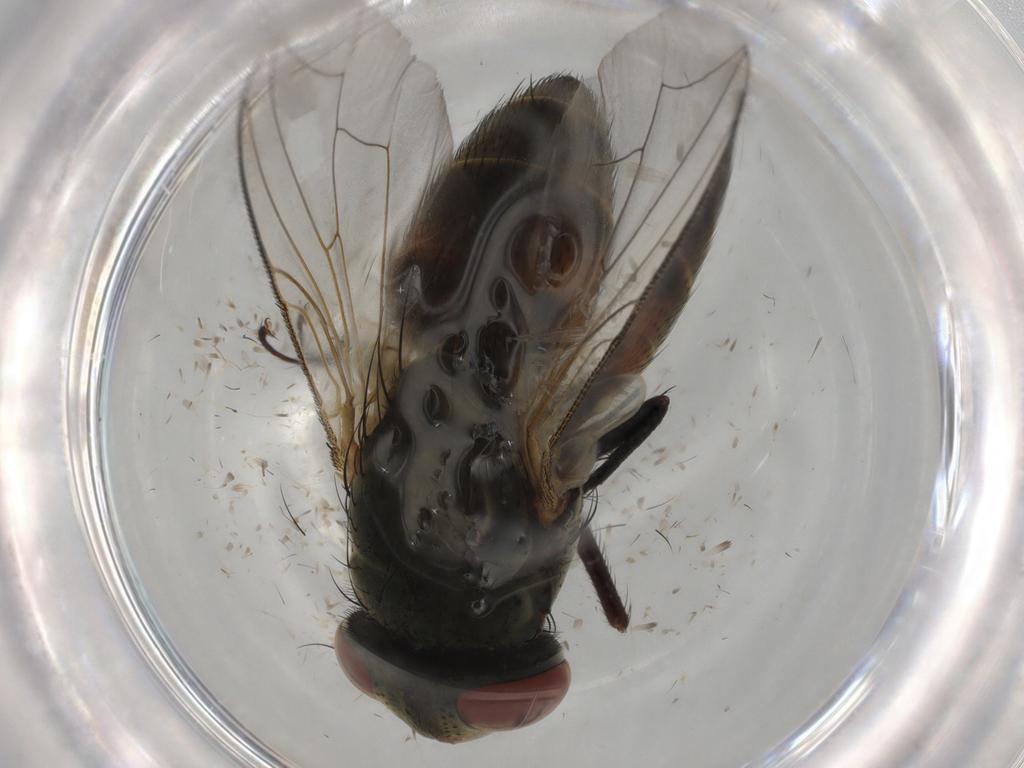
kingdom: Animalia
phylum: Arthropoda
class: Insecta
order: Diptera
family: Sarcophagidae
